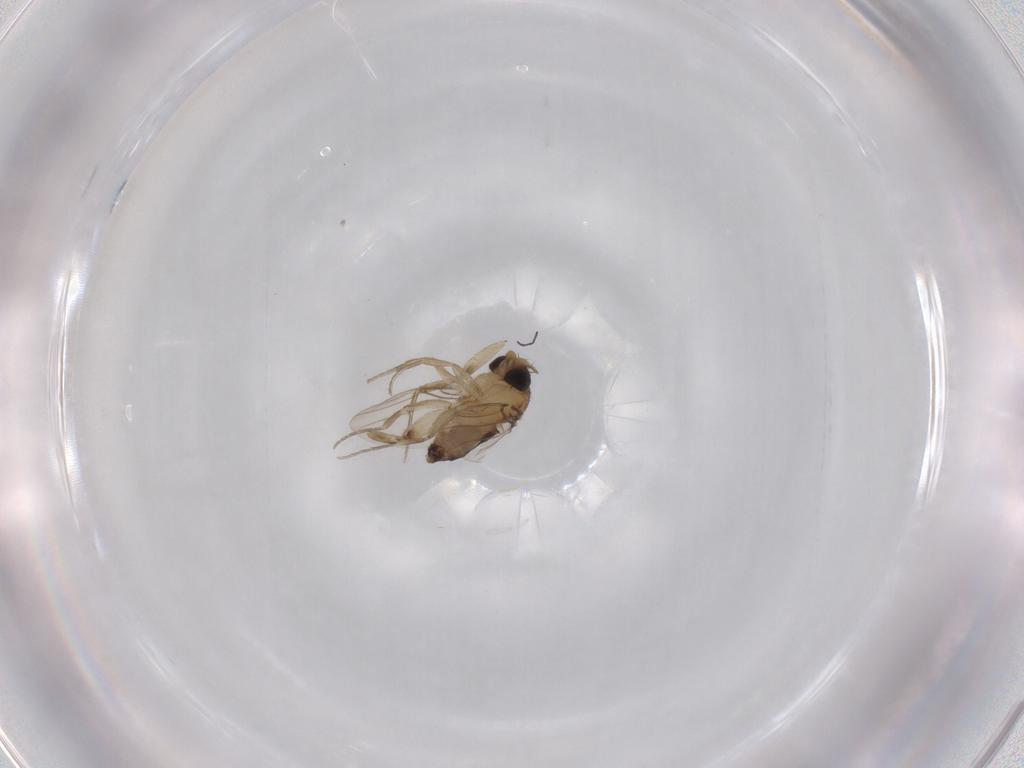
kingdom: Animalia
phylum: Arthropoda
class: Insecta
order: Diptera
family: Phoridae
